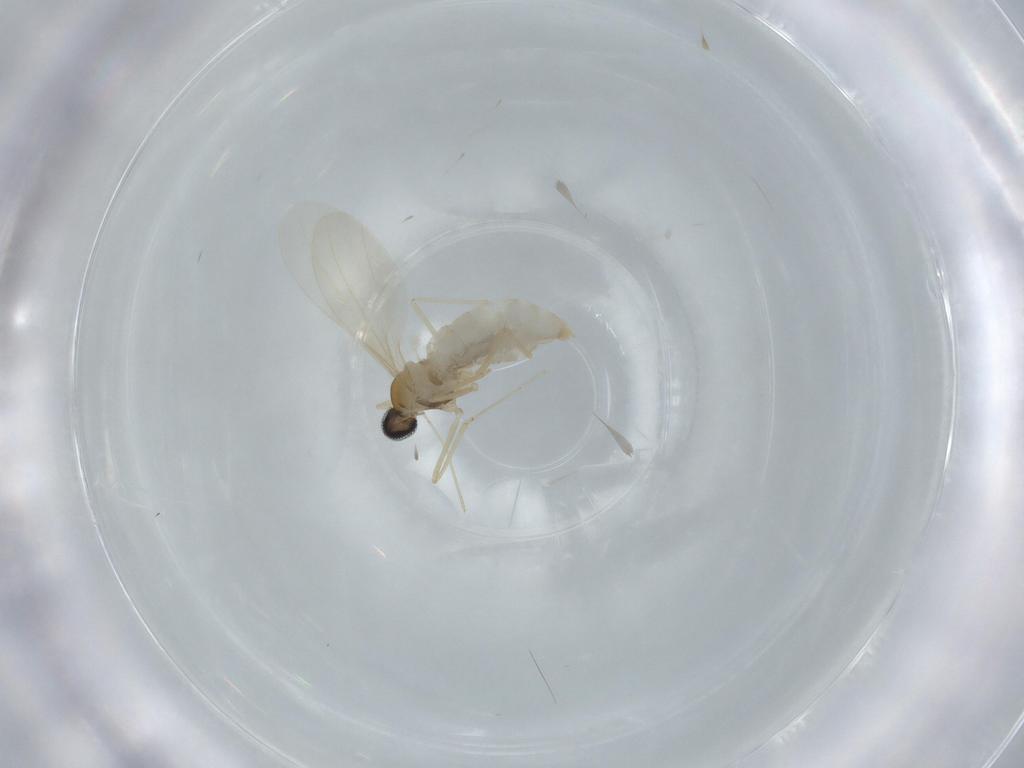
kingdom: Animalia
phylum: Arthropoda
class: Insecta
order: Diptera
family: Cecidomyiidae
